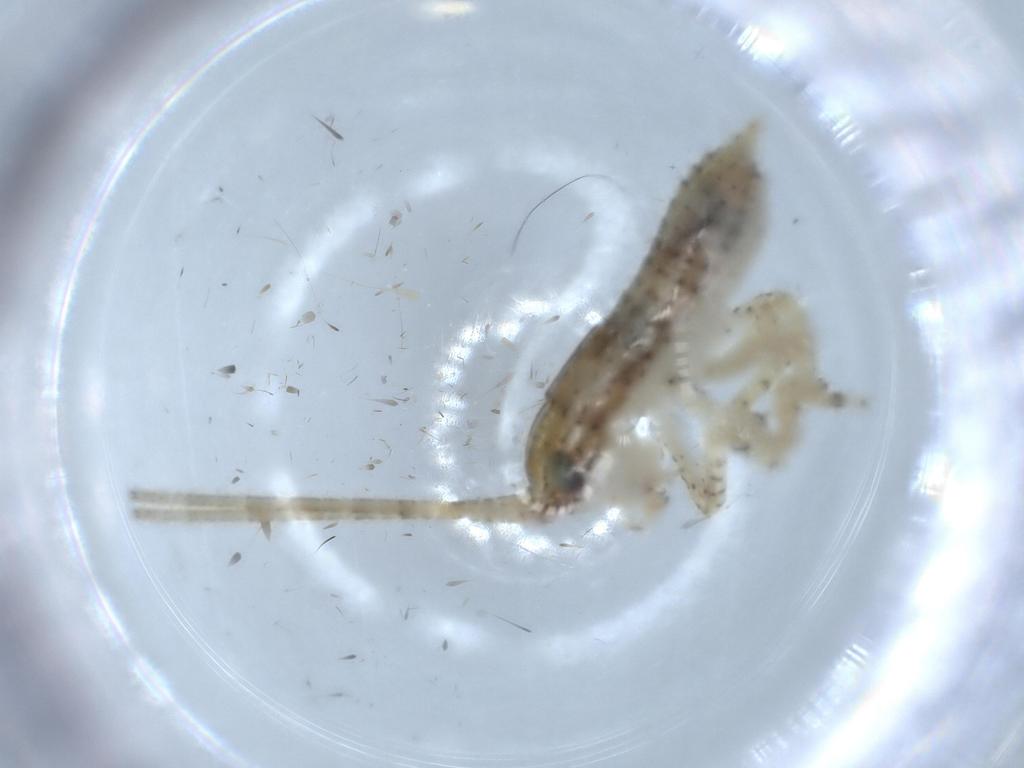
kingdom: Animalia
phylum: Arthropoda
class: Insecta
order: Orthoptera
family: Gryllidae
